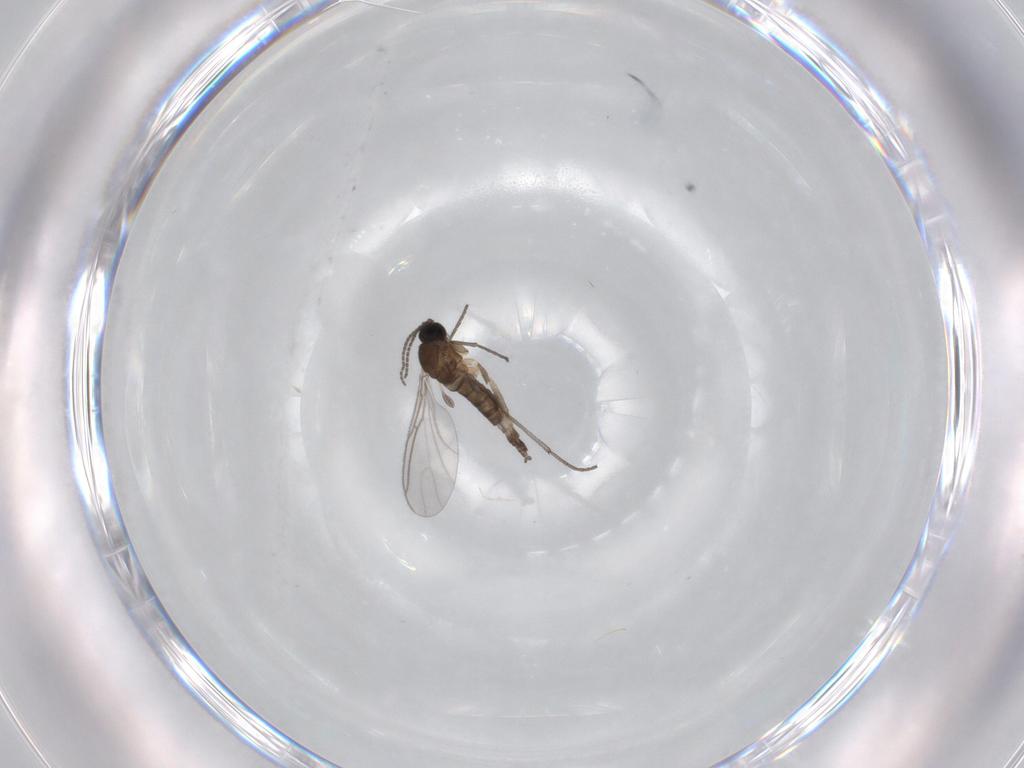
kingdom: Animalia
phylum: Arthropoda
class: Insecta
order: Diptera
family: Sciaridae
